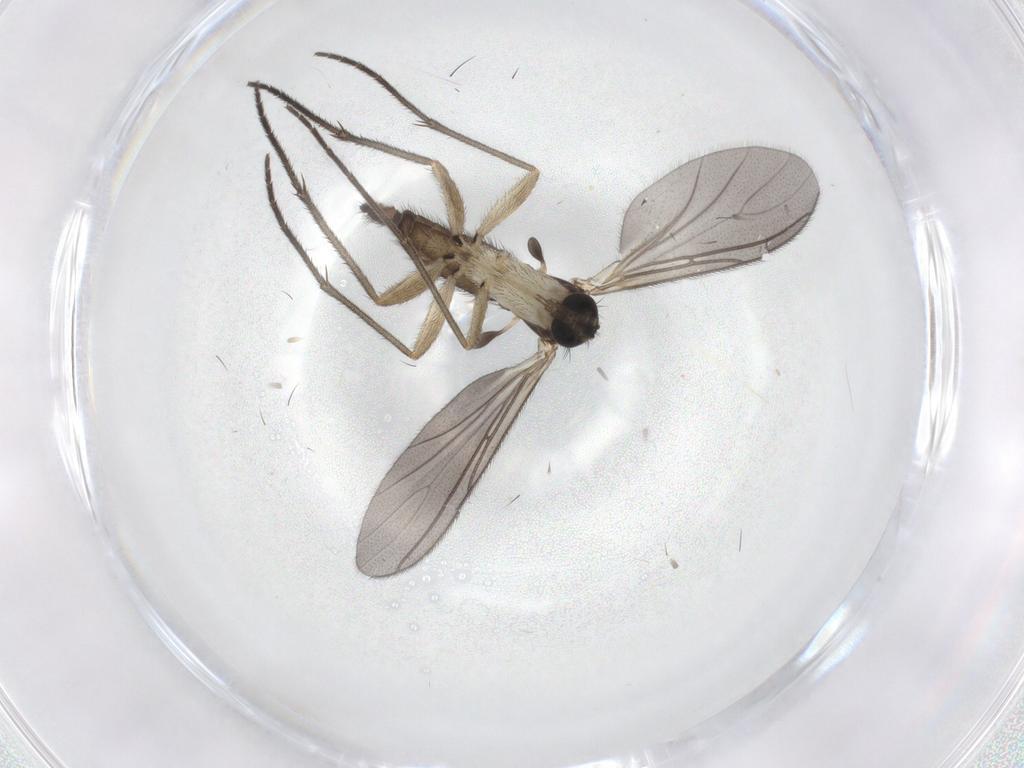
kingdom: Animalia
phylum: Arthropoda
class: Insecta
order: Diptera
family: Sciaridae
